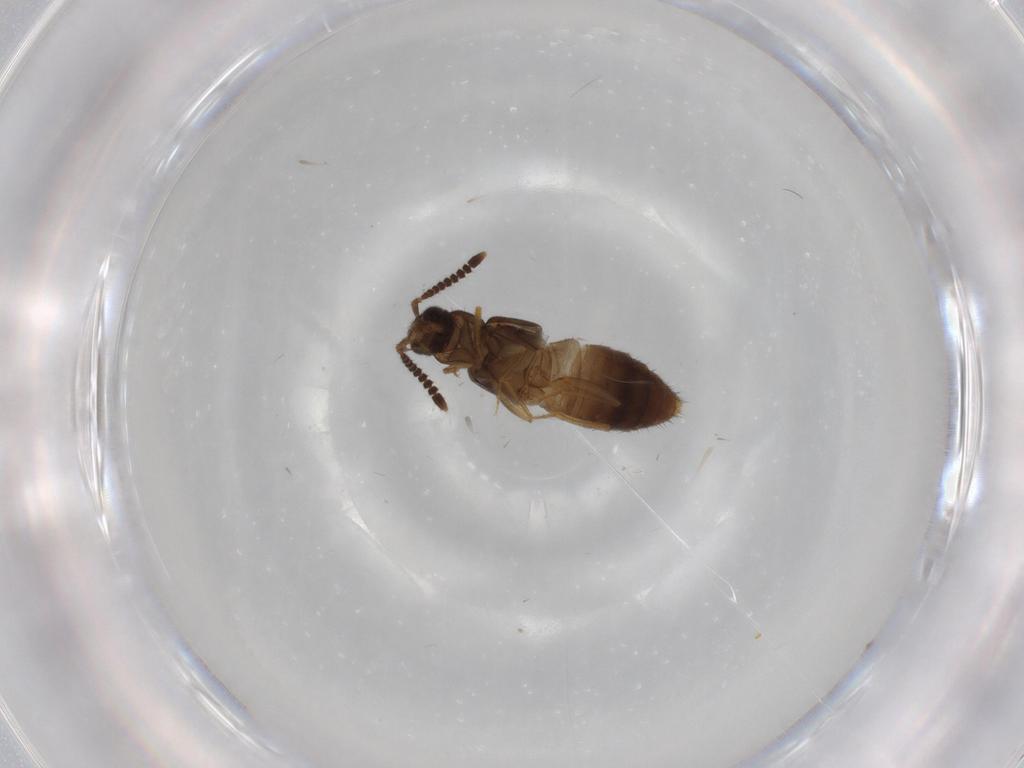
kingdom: Animalia
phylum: Arthropoda
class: Insecta
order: Coleoptera
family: Staphylinidae
